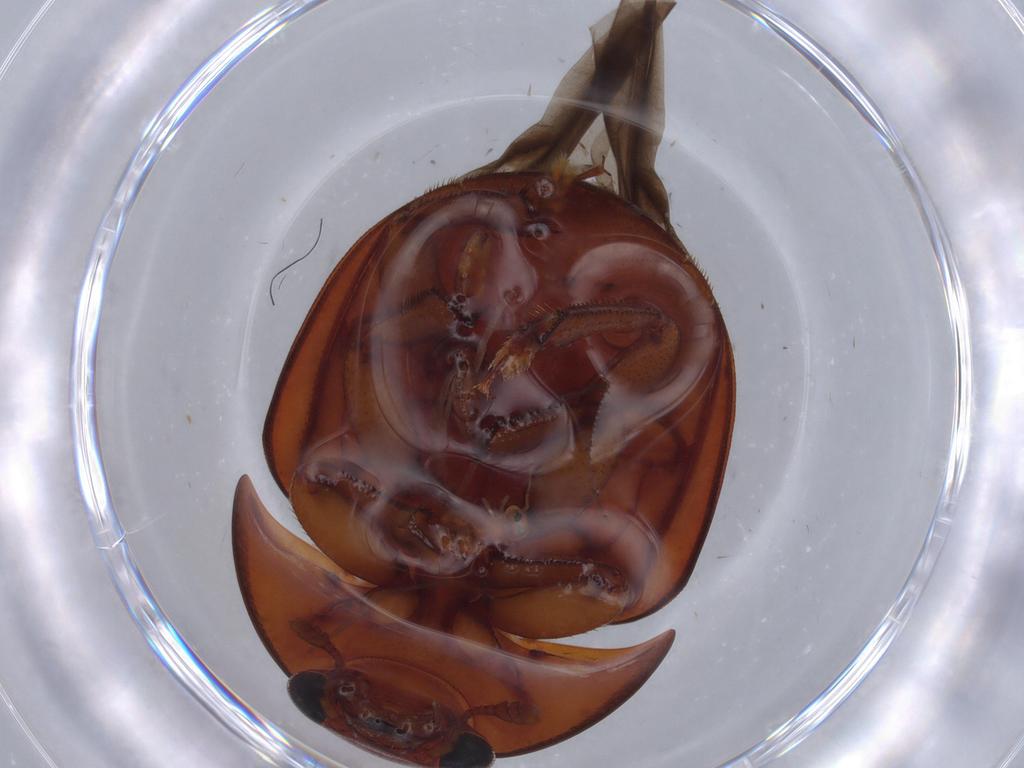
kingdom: Animalia
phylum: Arthropoda
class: Insecta
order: Coleoptera
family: Nitidulidae
